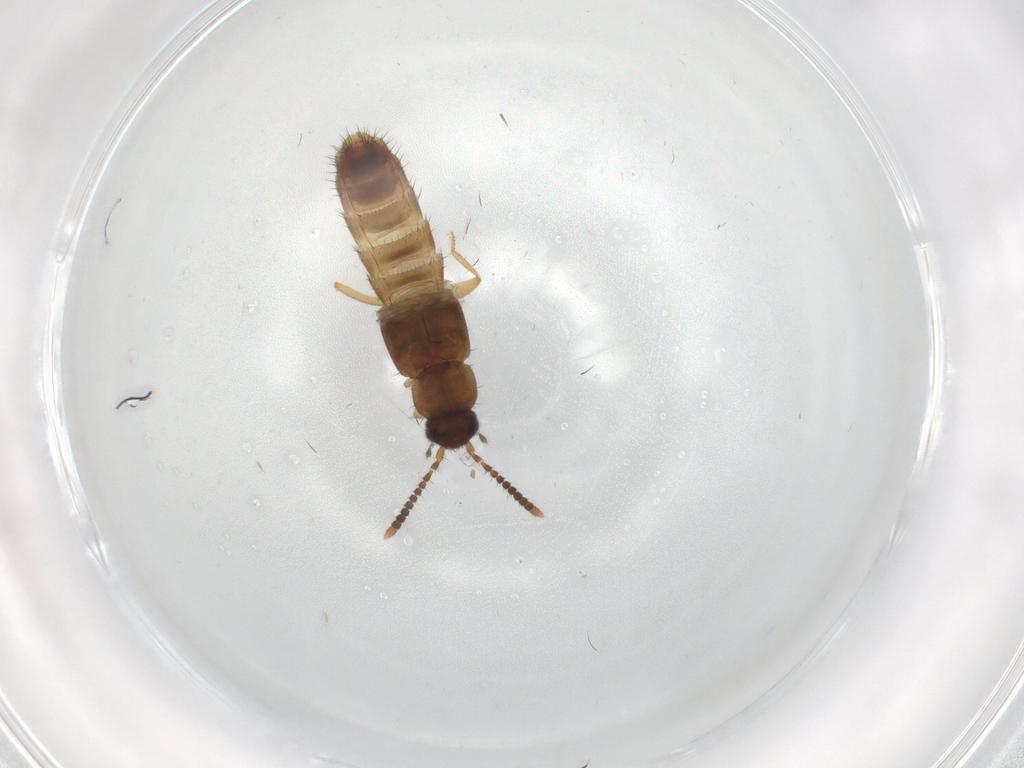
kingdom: Animalia
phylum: Arthropoda
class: Insecta
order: Coleoptera
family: Staphylinidae
